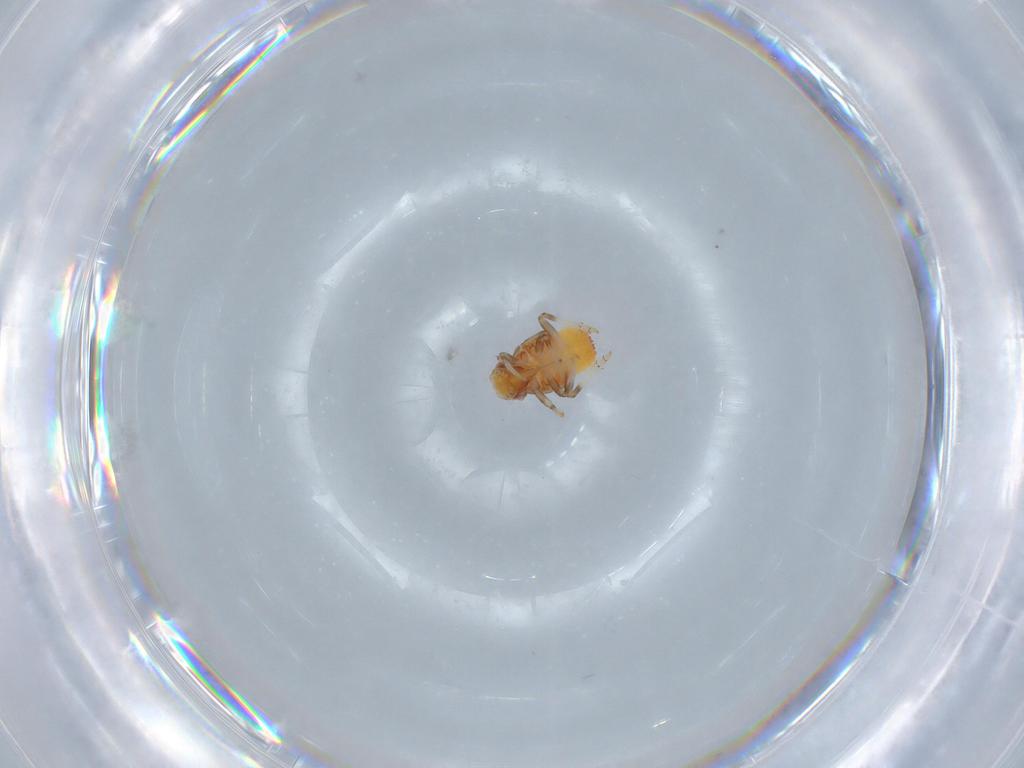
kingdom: Animalia
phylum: Arthropoda
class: Insecta
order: Hemiptera
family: Issidae
